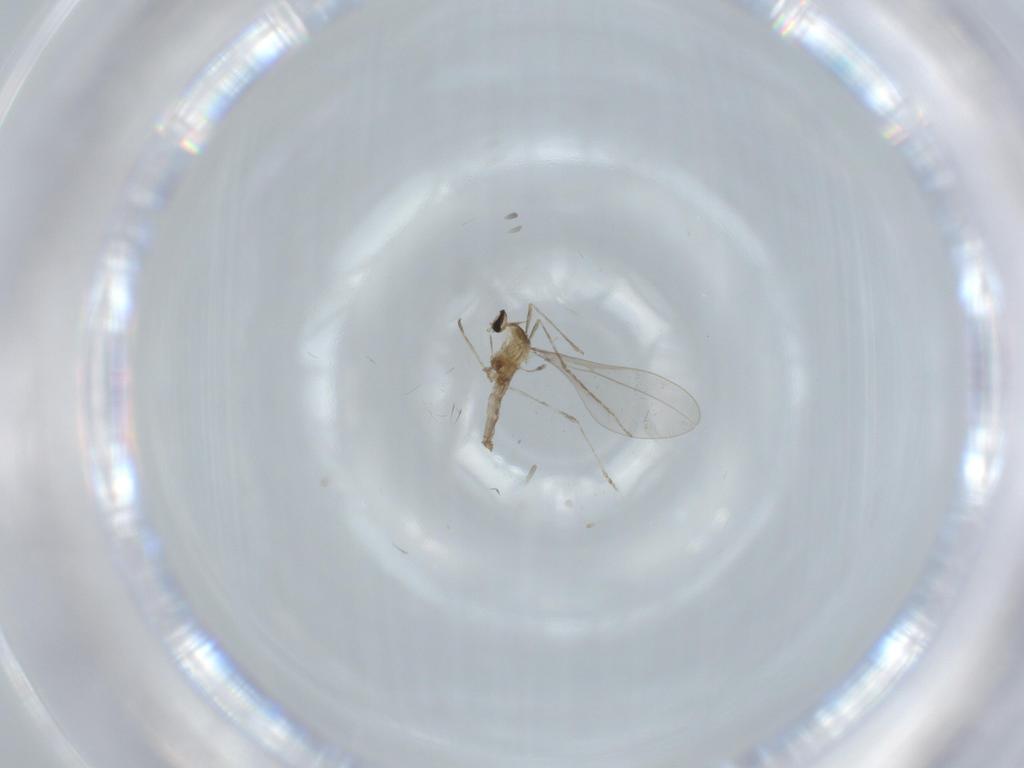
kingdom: Animalia
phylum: Arthropoda
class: Insecta
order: Diptera
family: Cecidomyiidae
